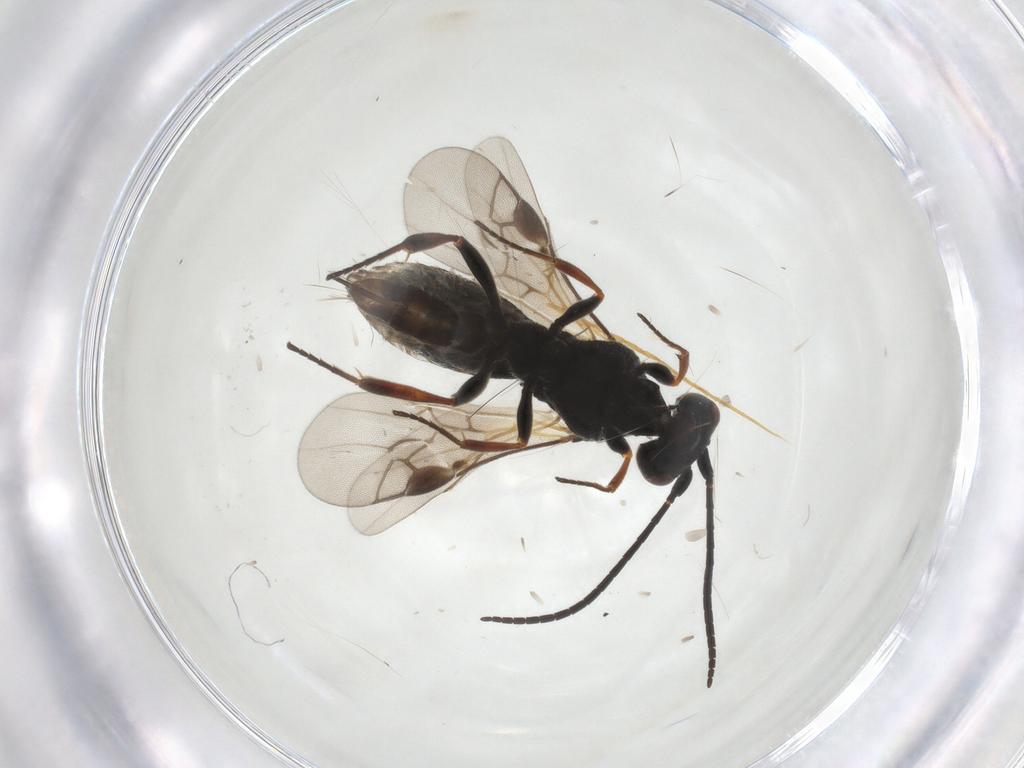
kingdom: Animalia
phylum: Arthropoda
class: Insecta
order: Hymenoptera
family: Braconidae
